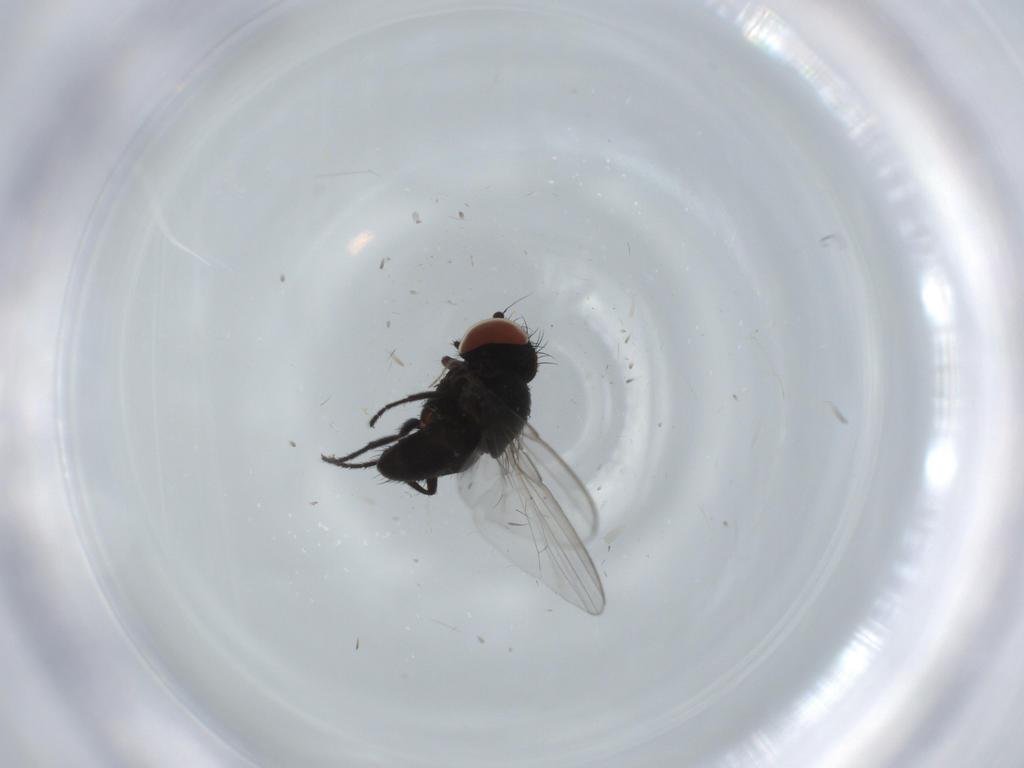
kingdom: Animalia
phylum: Arthropoda
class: Insecta
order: Diptera
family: Milichiidae
